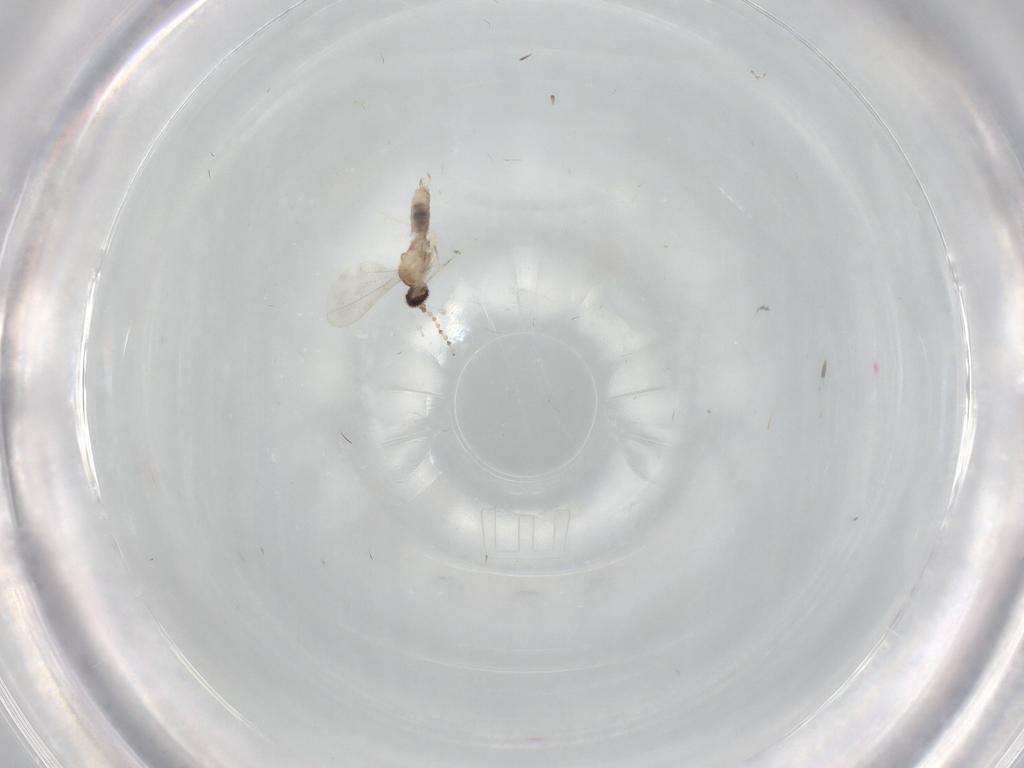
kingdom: Animalia
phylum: Arthropoda
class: Insecta
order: Diptera
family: Cecidomyiidae
